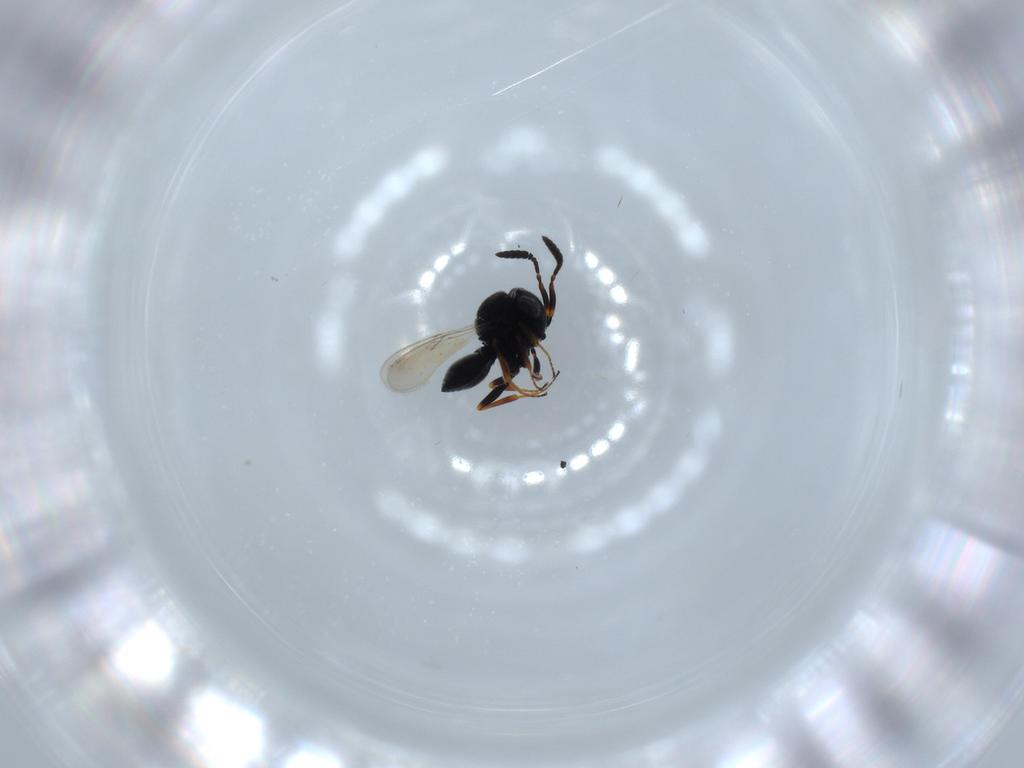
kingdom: Animalia
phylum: Arthropoda
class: Insecta
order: Hymenoptera
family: Scelionidae
